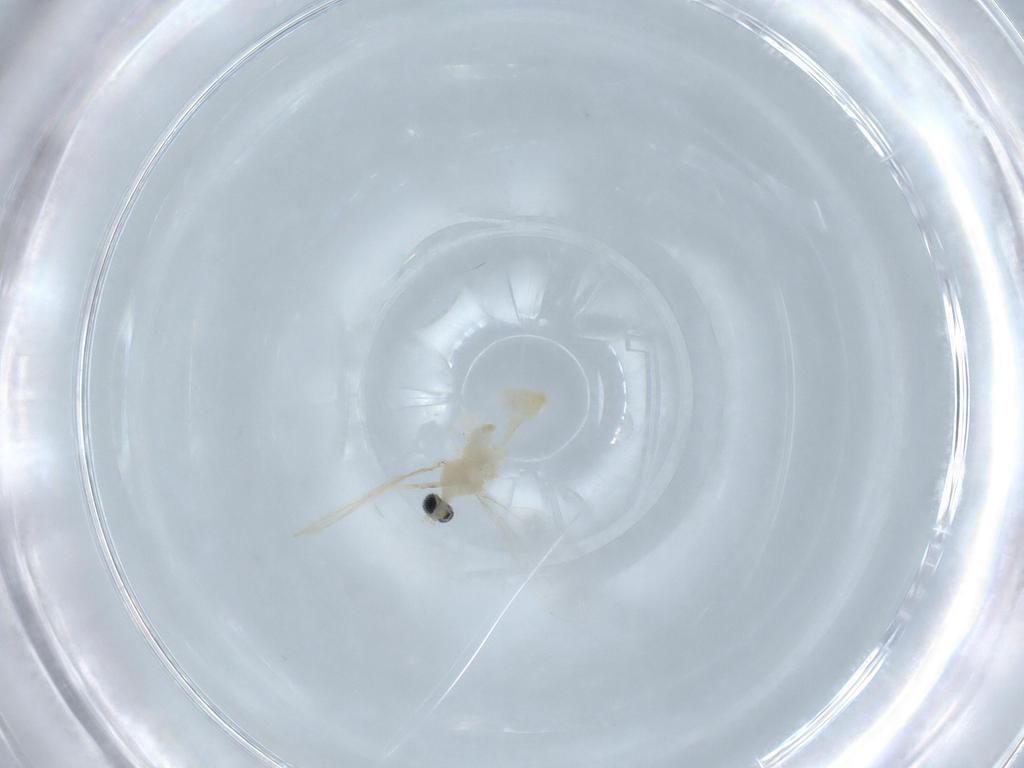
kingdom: Animalia
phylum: Arthropoda
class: Insecta
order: Diptera
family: Cecidomyiidae
